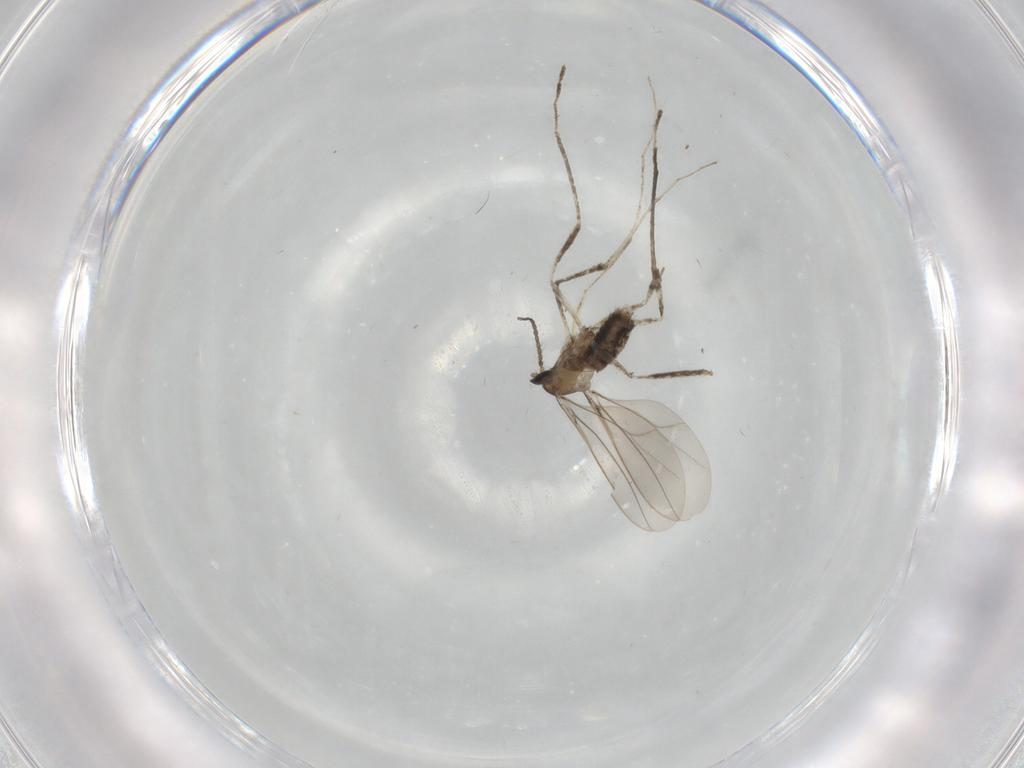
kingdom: Animalia
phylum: Arthropoda
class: Insecta
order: Diptera
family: Cecidomyiidae
